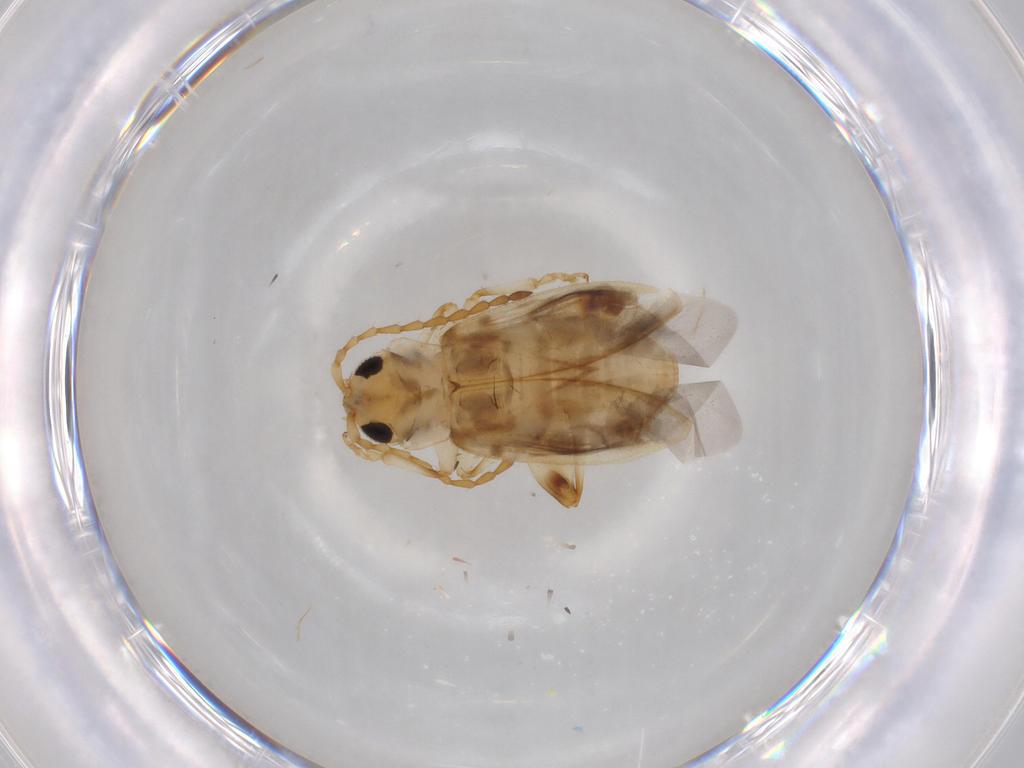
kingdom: Animalia
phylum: Arthropoda
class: Insecta
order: Coleoptera
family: Chrysomelidae
